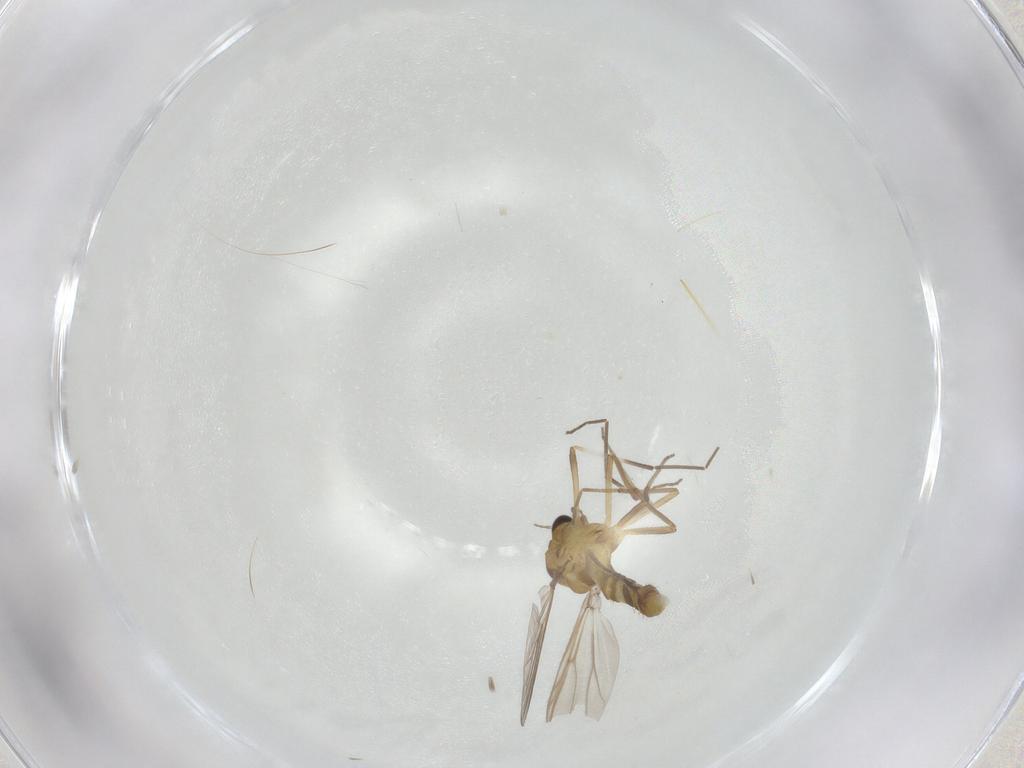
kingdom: Animalia
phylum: Arthropoda
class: Insecta
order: Diptera
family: Chironomidae
